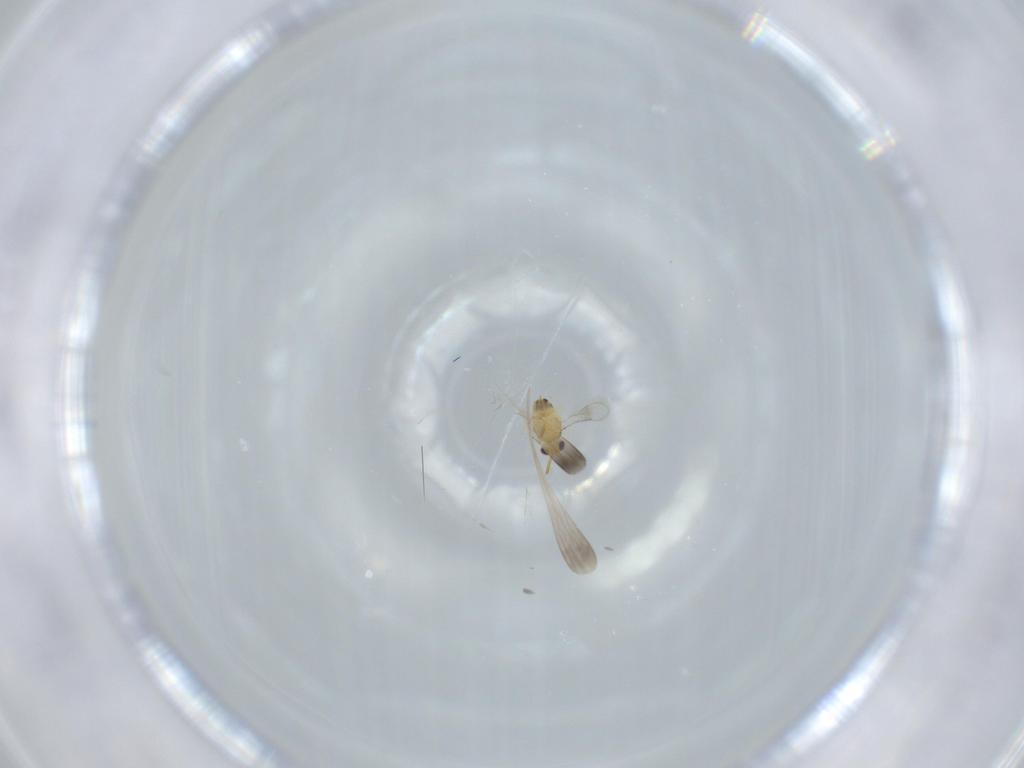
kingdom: Animalia
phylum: Arthropoda
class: Insecta
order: Hymenoptera
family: Aphelinidae
